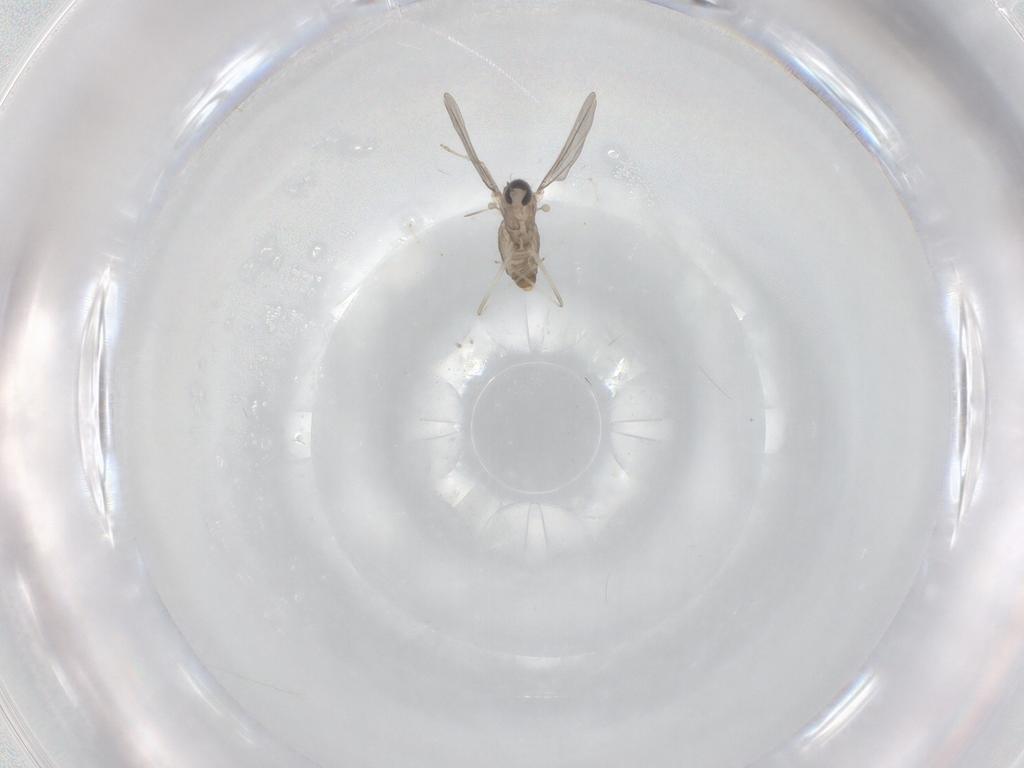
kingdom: Animalia
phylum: Arthropoda
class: Insecta
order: Diptera
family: Cecidomyiidae
